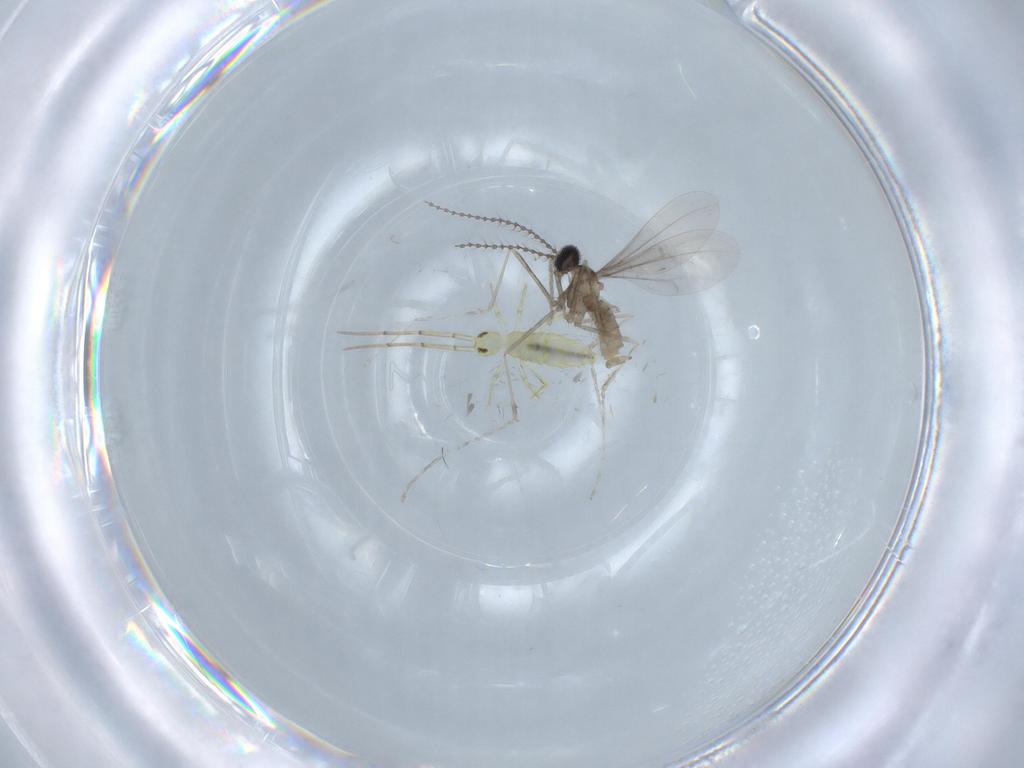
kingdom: Animalia
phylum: Arthropoda
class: Insecta
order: Diptera
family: Cecidomyiidae
